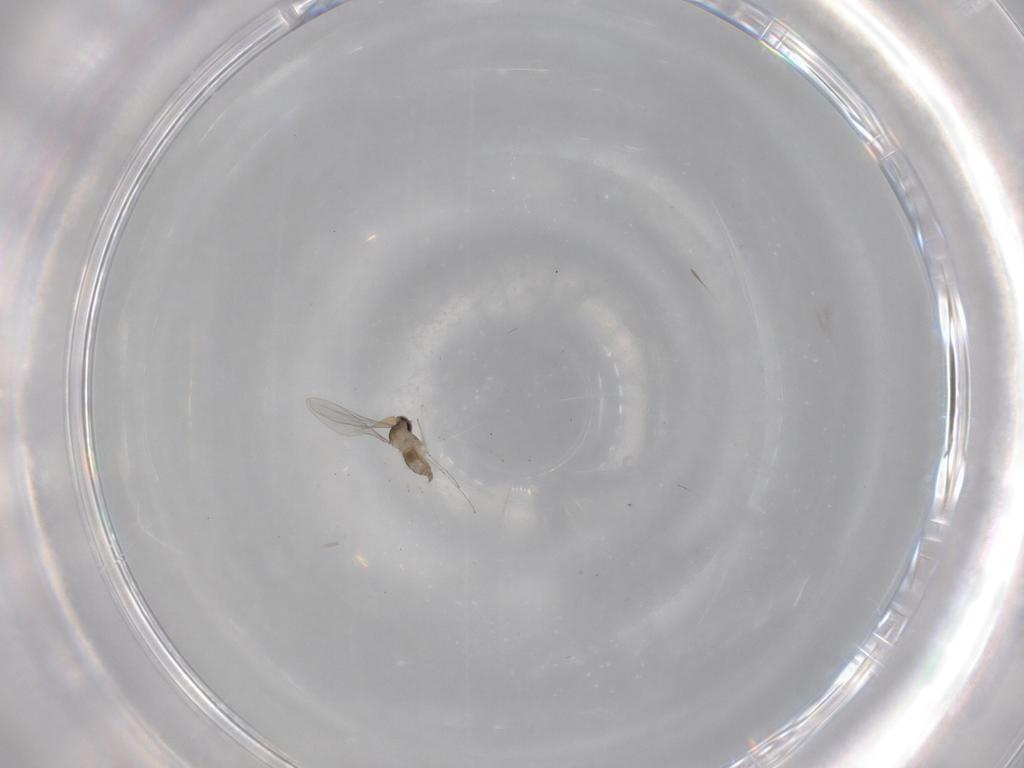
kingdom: Animalia
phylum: Arthropoda
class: Insecta
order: Diptera
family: Cecidomyiidae
